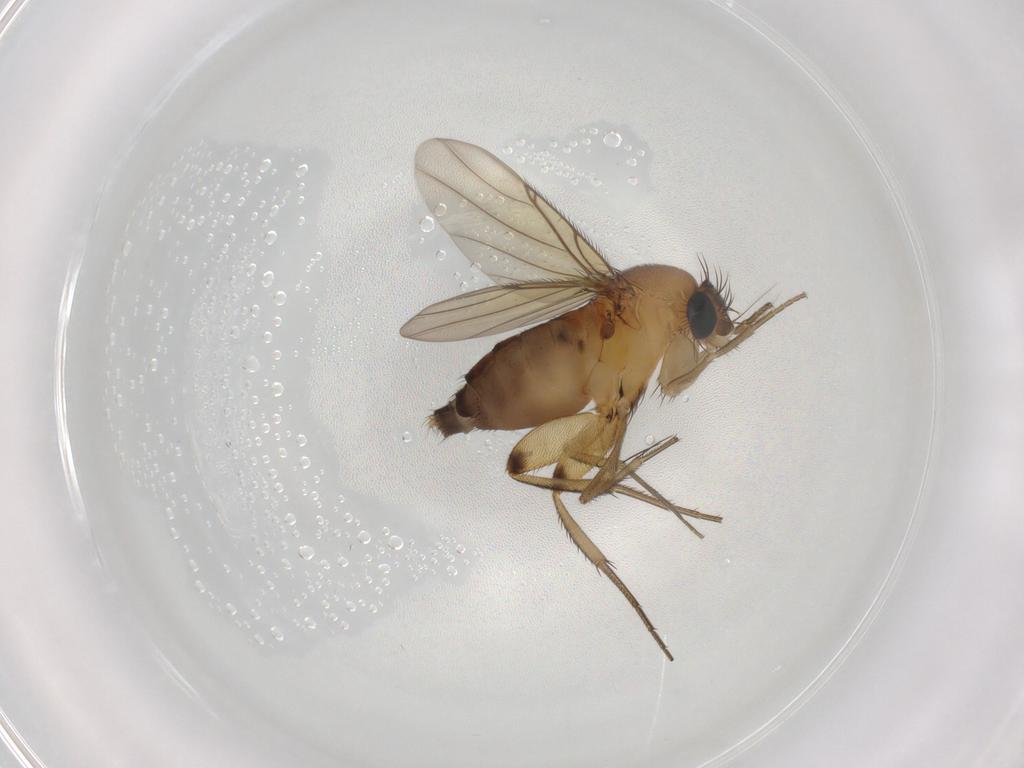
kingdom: Animalia
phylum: Arthropoda
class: Insecta
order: Diptera
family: Phoridae
